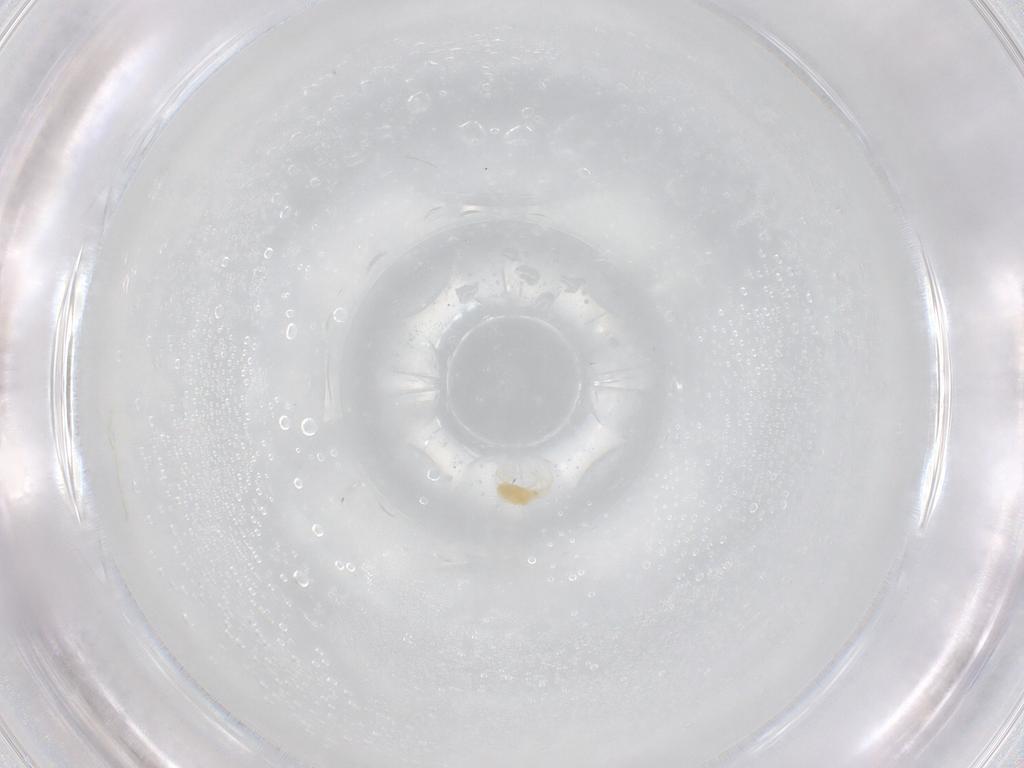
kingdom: Animalia
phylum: Arthropoda
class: Arachnida
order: Trombidiformes
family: Tetranychidae
